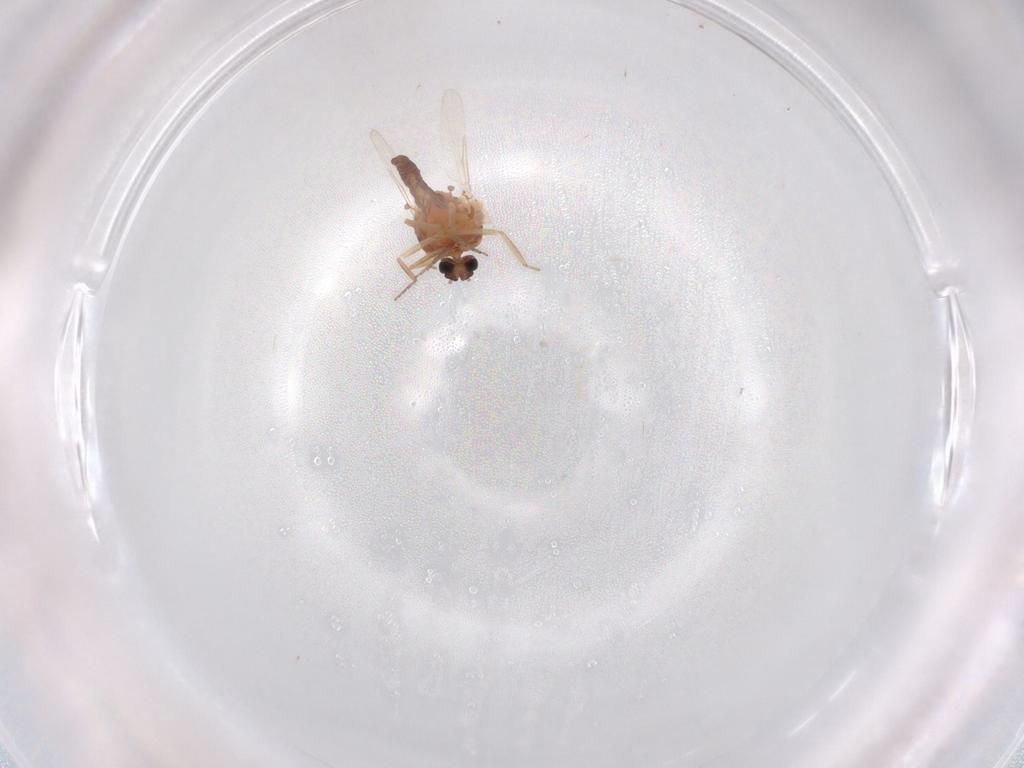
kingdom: Animalia
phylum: Arthropoda
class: Insecta
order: Diptera
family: Ceratopogonidae
